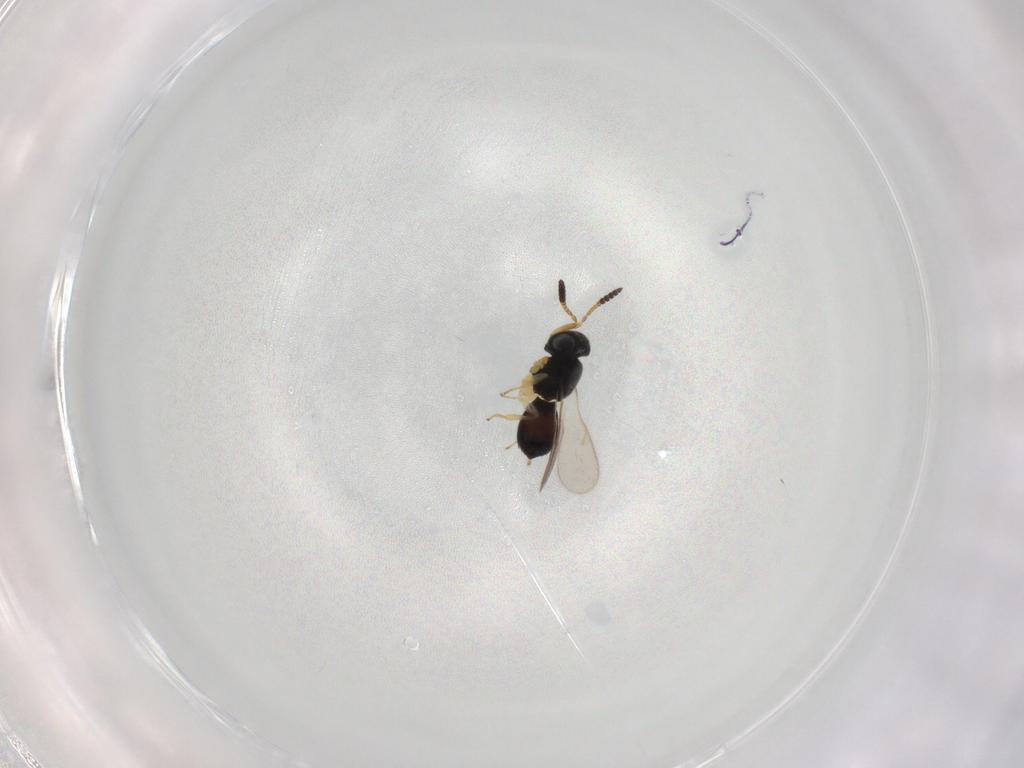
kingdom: Animalia
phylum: Arthropoda
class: Insecta
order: Hymenoptera
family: Scelionidae
